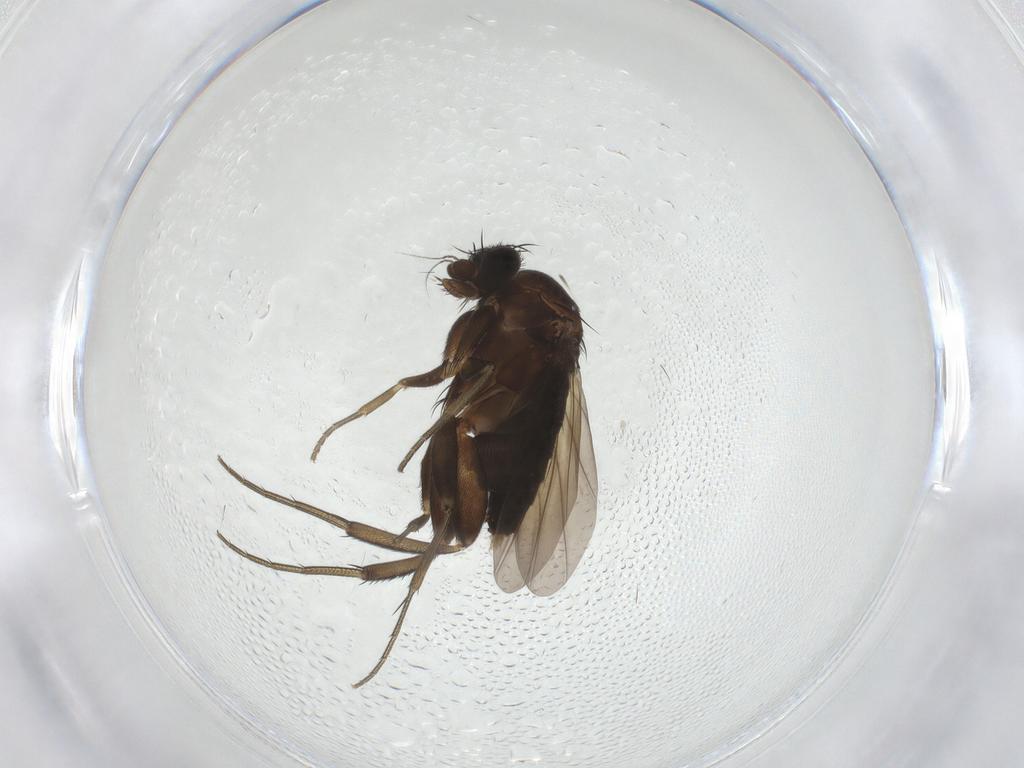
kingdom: Animalia
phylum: Arthropoda
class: Insecta
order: Diptera
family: Phoridae
